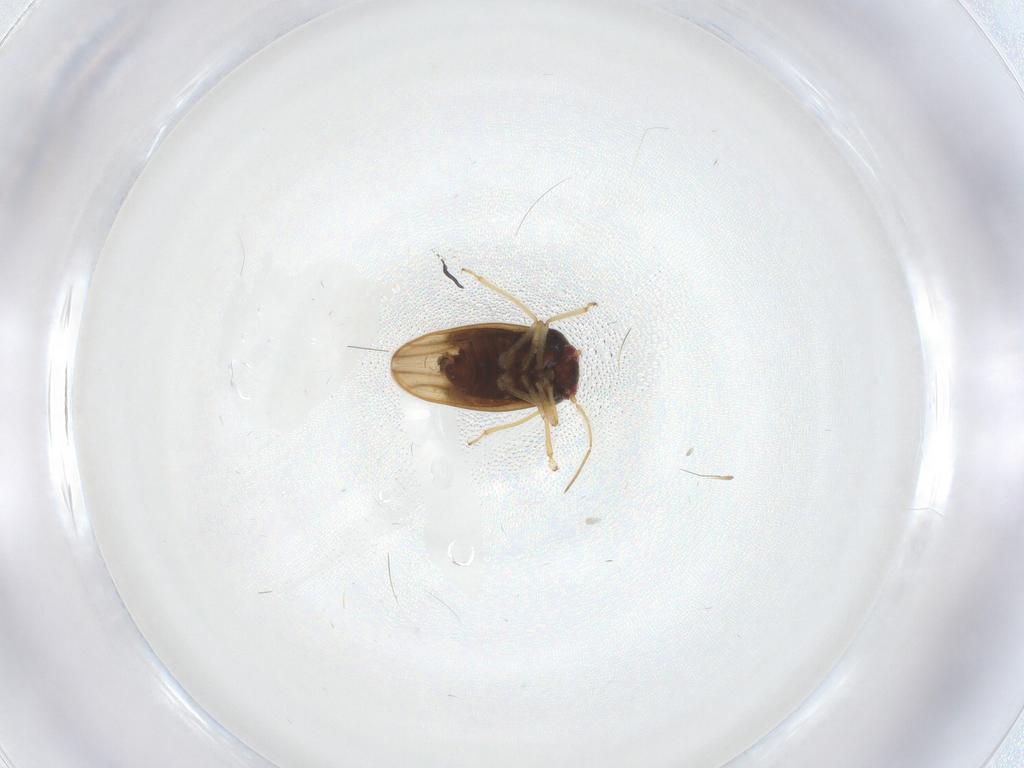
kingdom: Animalia
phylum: Arthropoda
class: Insecta
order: Hemiptera
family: Schizopteridae
